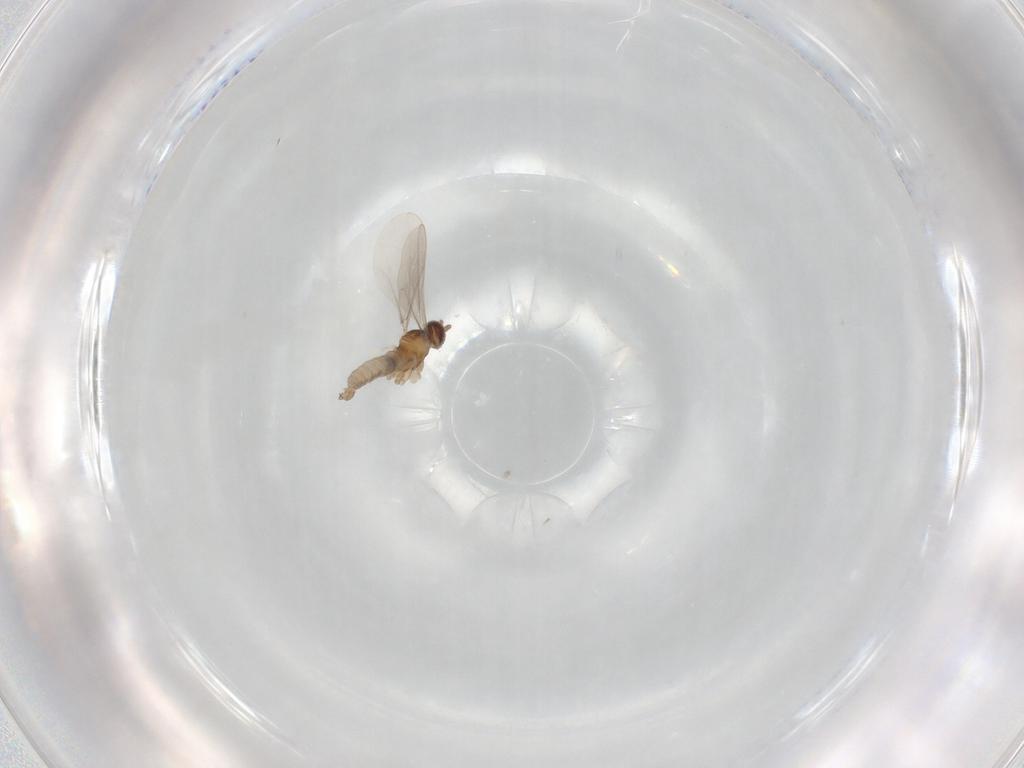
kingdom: Animalia
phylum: Arthropoda
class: Insecta
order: Diptera
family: Cecidomyiidae
